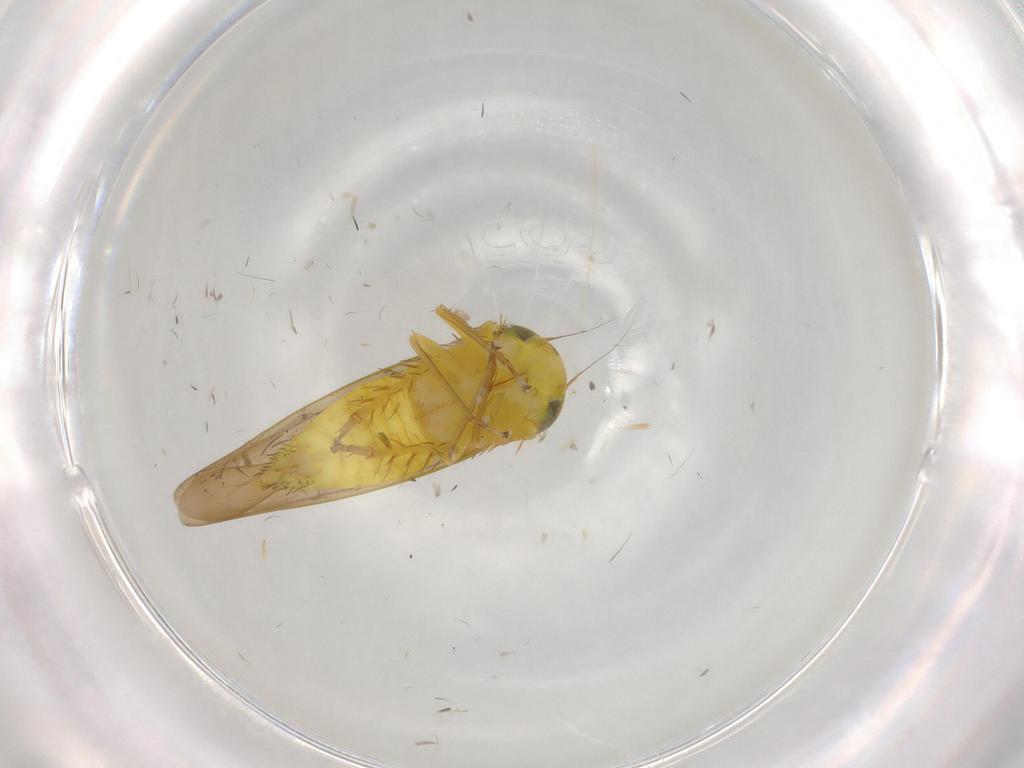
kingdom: Animalia
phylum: Arthropoda
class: Insecta
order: Hemiptera
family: Cicadellidae
